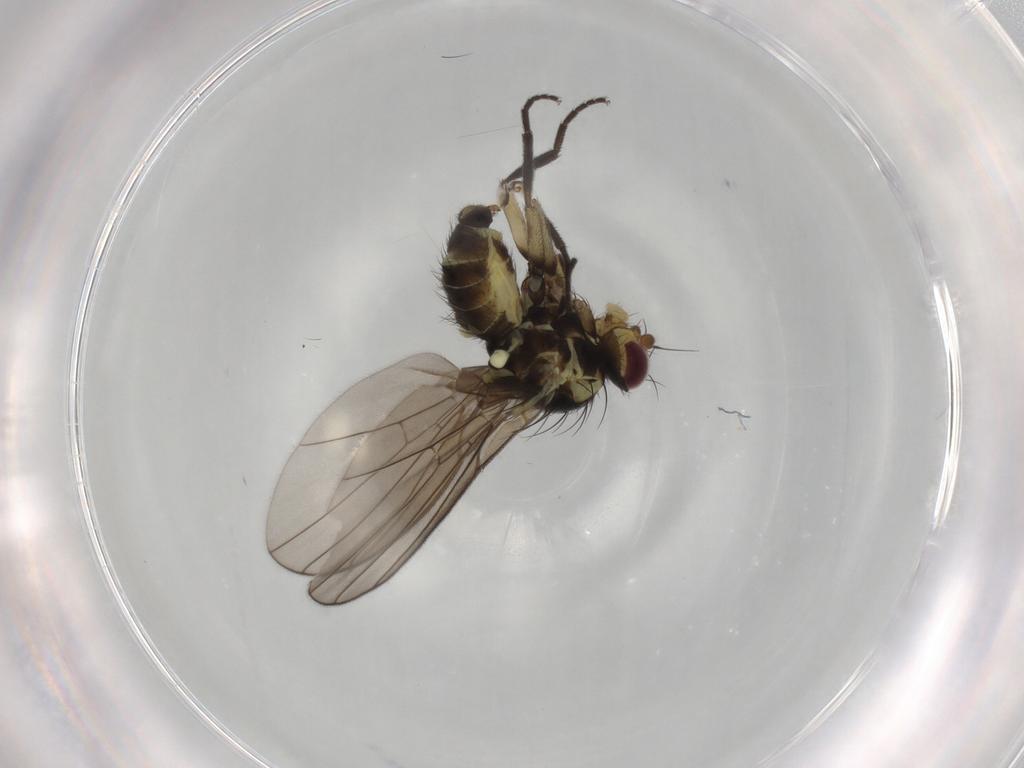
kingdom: Animalia
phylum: Arthropoda
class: Insecta
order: Diptera
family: Agromyzidae
